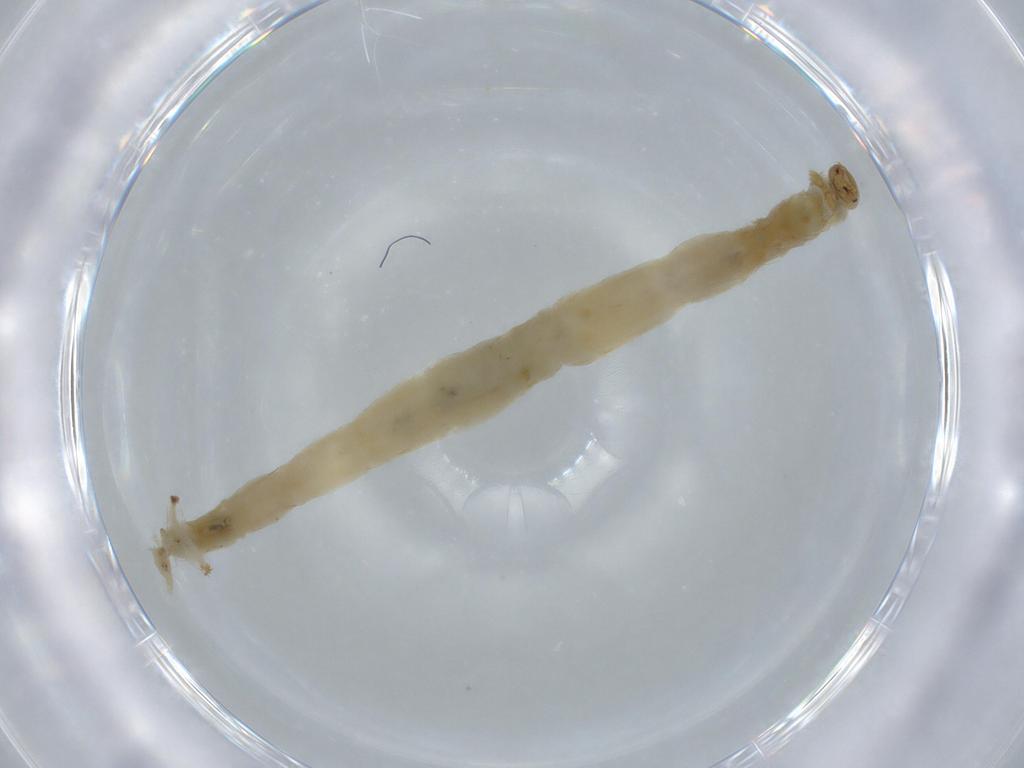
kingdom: Animalia
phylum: Arthropoda
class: Insecta
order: Diptera
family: Chironomidae
